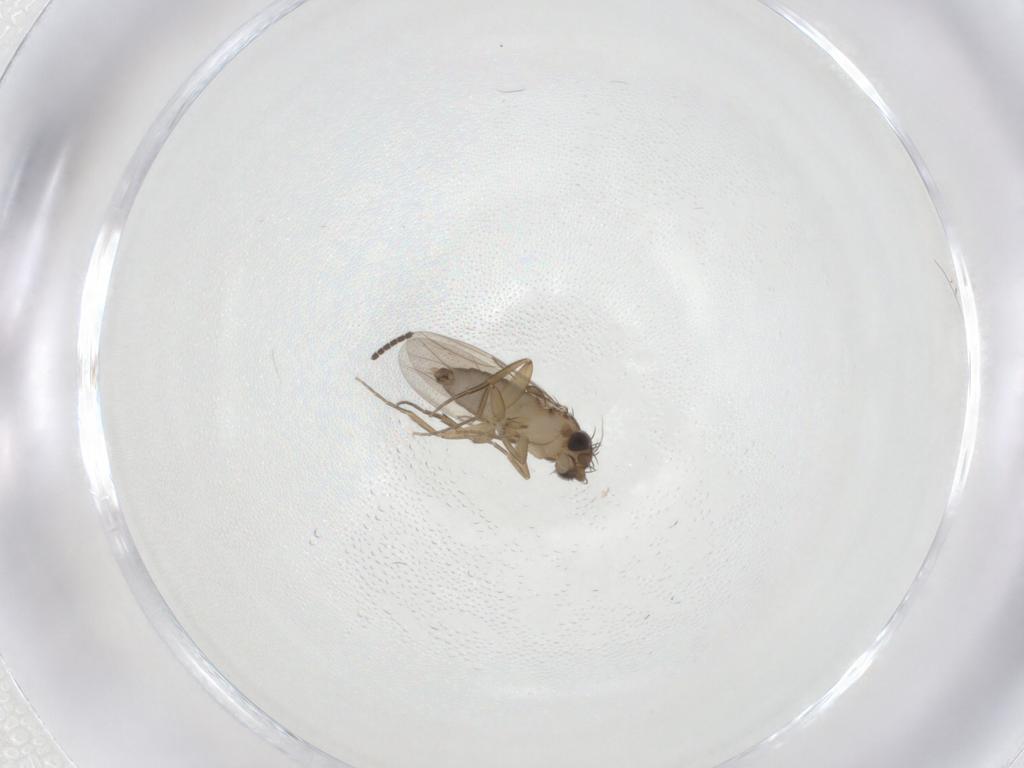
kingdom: Animalia
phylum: Arthropoda
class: Insecta
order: Diptera
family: Phoridae
